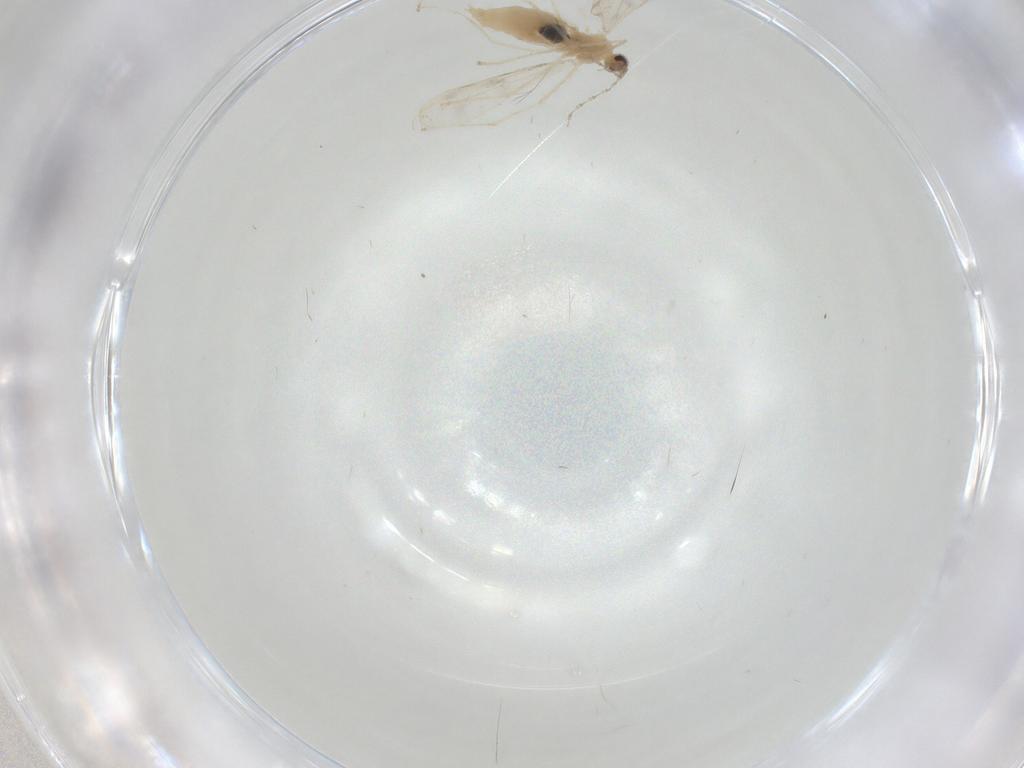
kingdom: Animalia
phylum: Arthropoda
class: Insecta
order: Diptera
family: Cecidomyiidae
